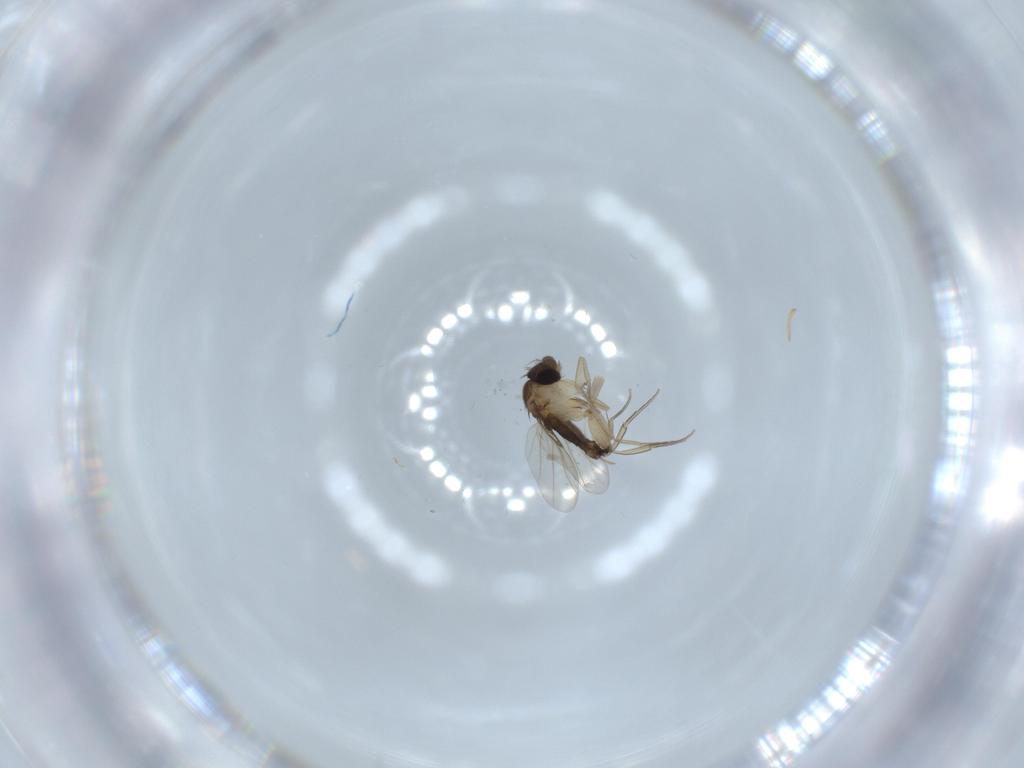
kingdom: Animalia
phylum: Arthropoda
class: Insecta
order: Diptera
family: Phoridae
